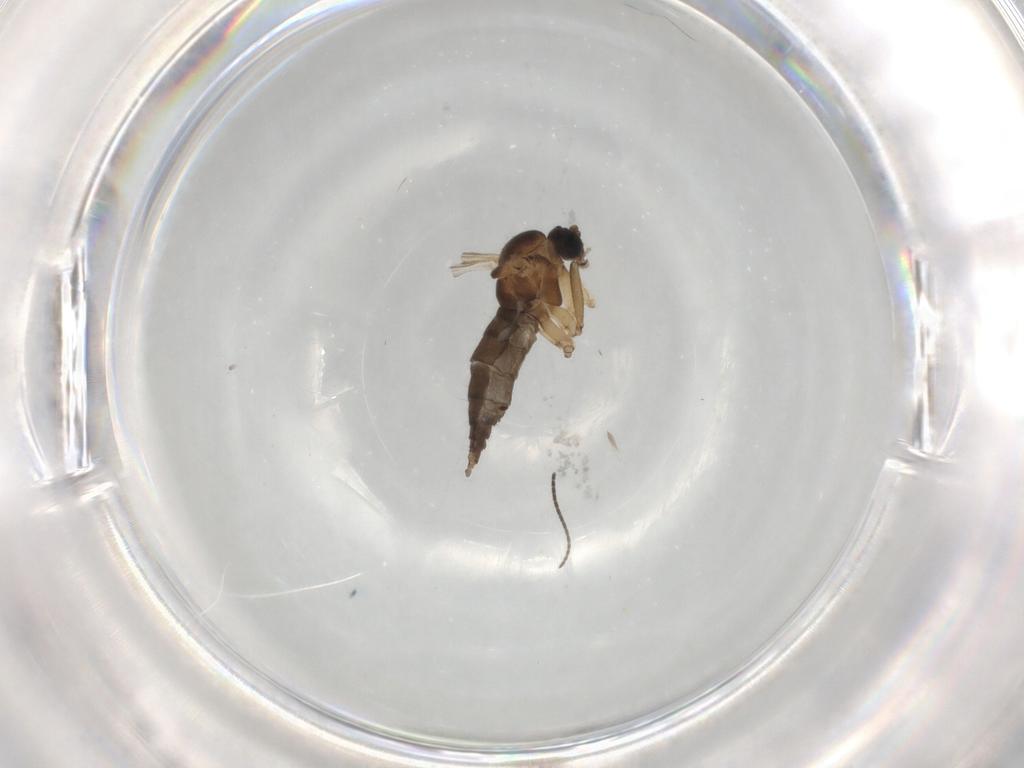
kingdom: Animalia
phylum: Arthropoda
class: Insecta
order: Diptera
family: Sciaridae
